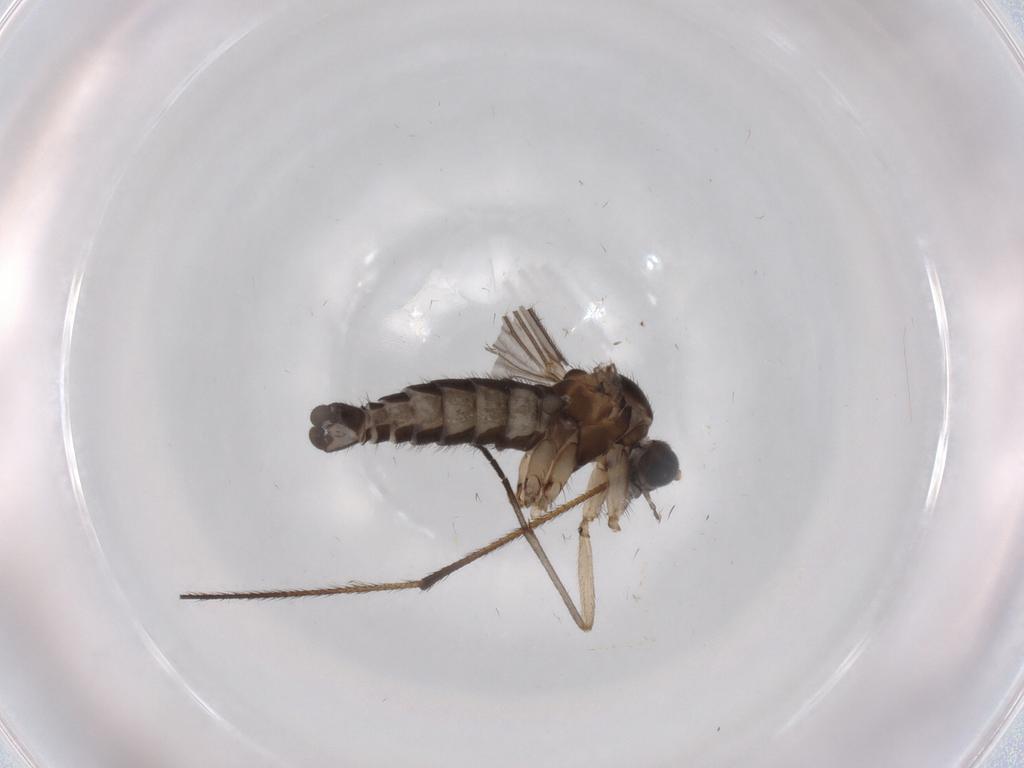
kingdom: Animalia
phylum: Arthropoda
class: Insecta
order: Diptera
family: Sciaridae
